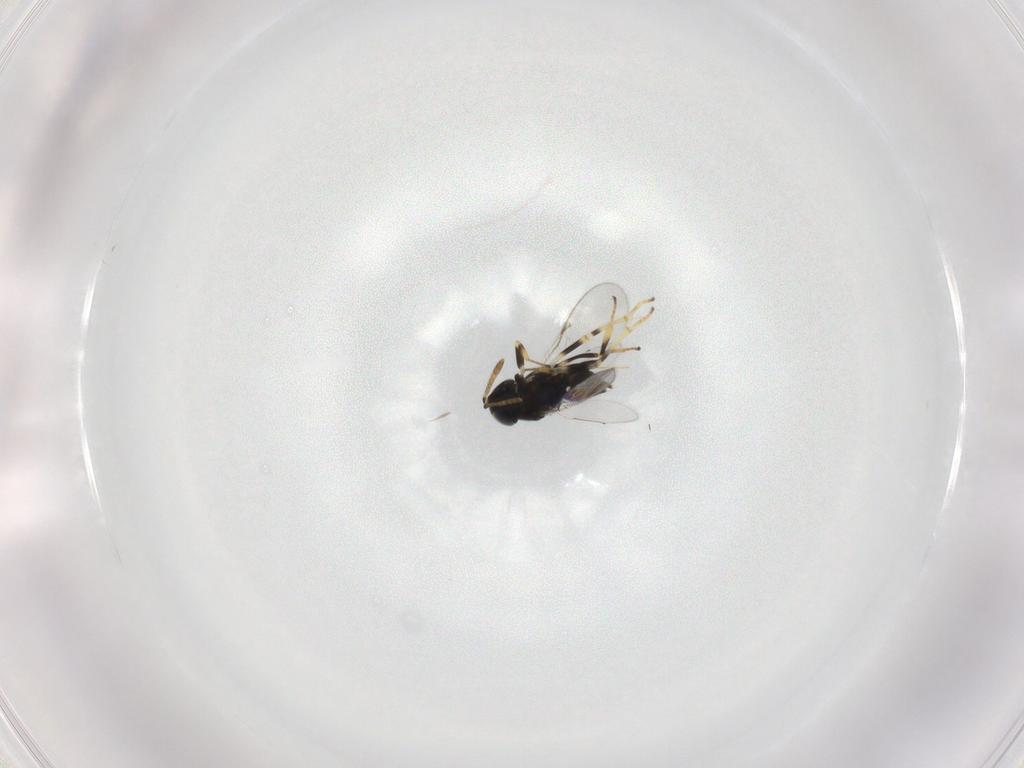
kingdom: Animalia
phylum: Arthropoda
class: Insecta
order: Hymenoptera
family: Encyrtidae
